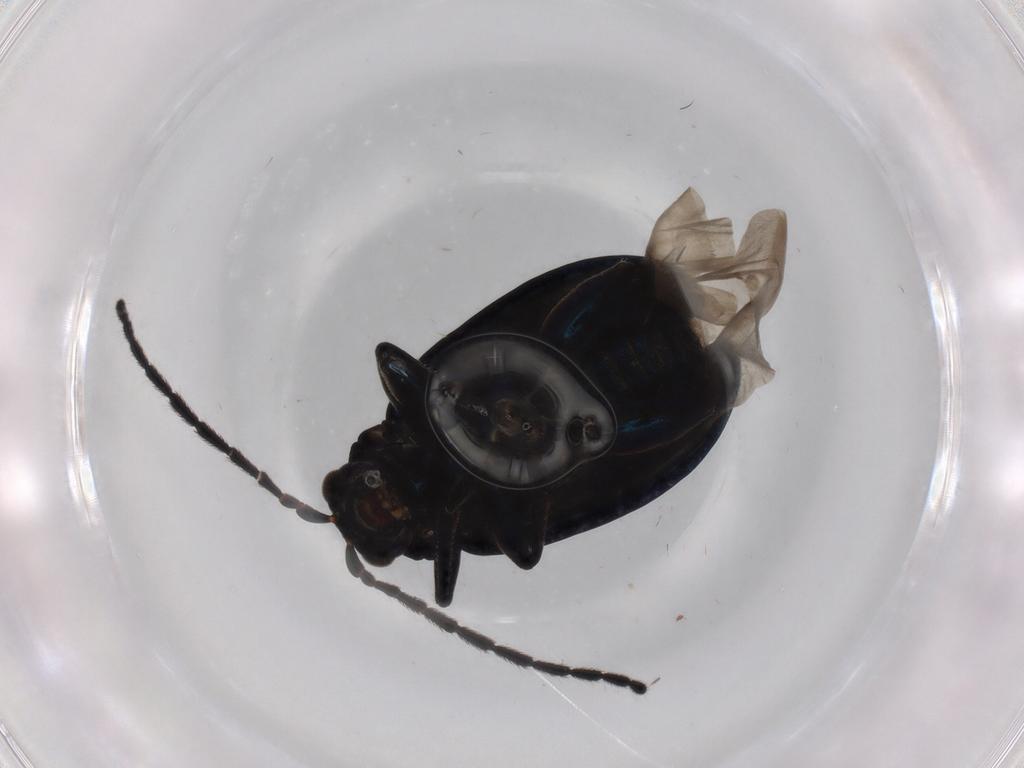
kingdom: Animalia
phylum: Arthropoda
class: Insecta
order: Coleoptera
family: Chrysomelidae
